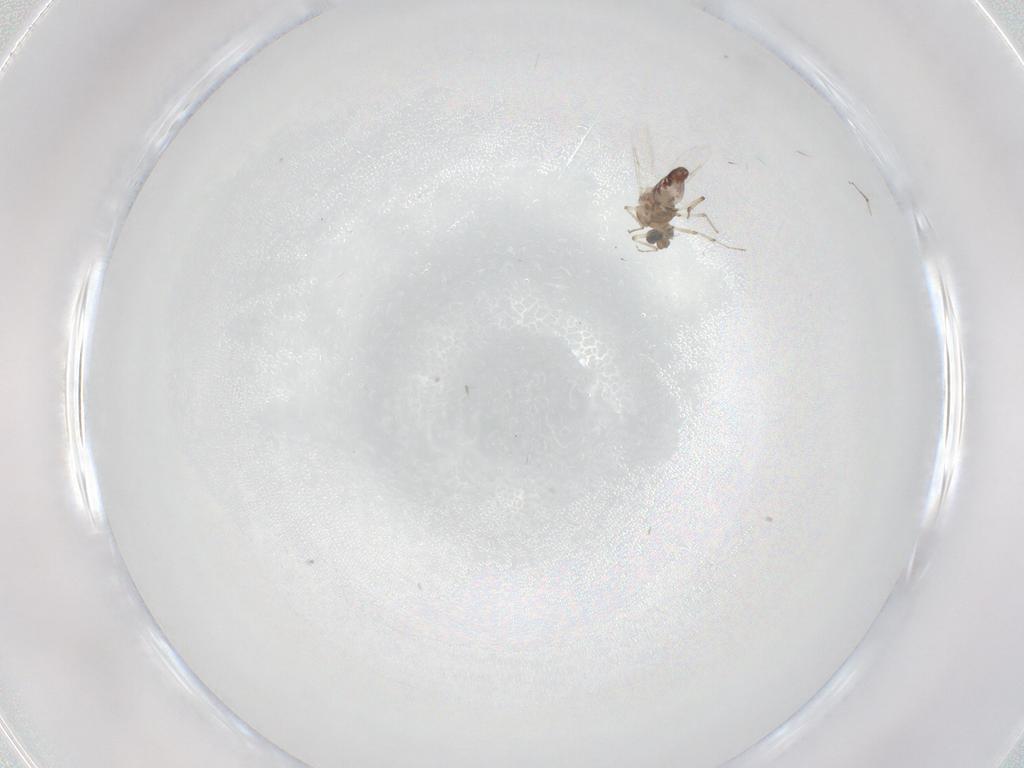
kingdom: Animalia
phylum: Arthropoda
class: Insecta
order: Diptera
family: Ceratopogonidae
